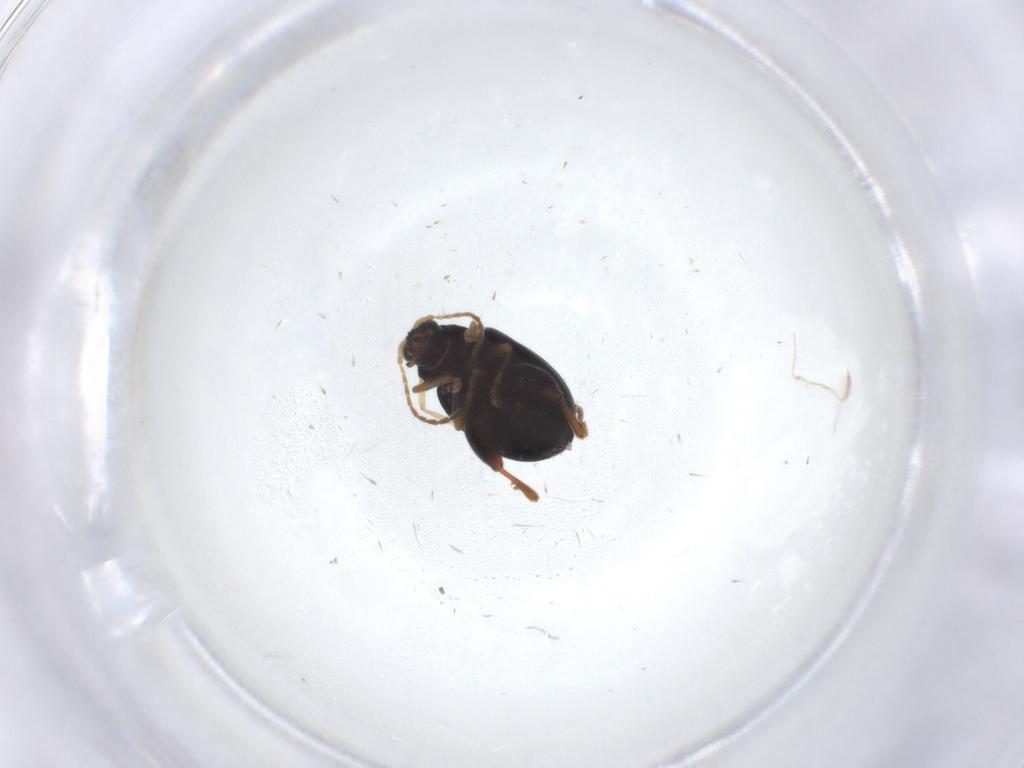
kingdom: Animalia
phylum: Arthropoda
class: Insecta
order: Coleoptera
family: Chrysomelidae
